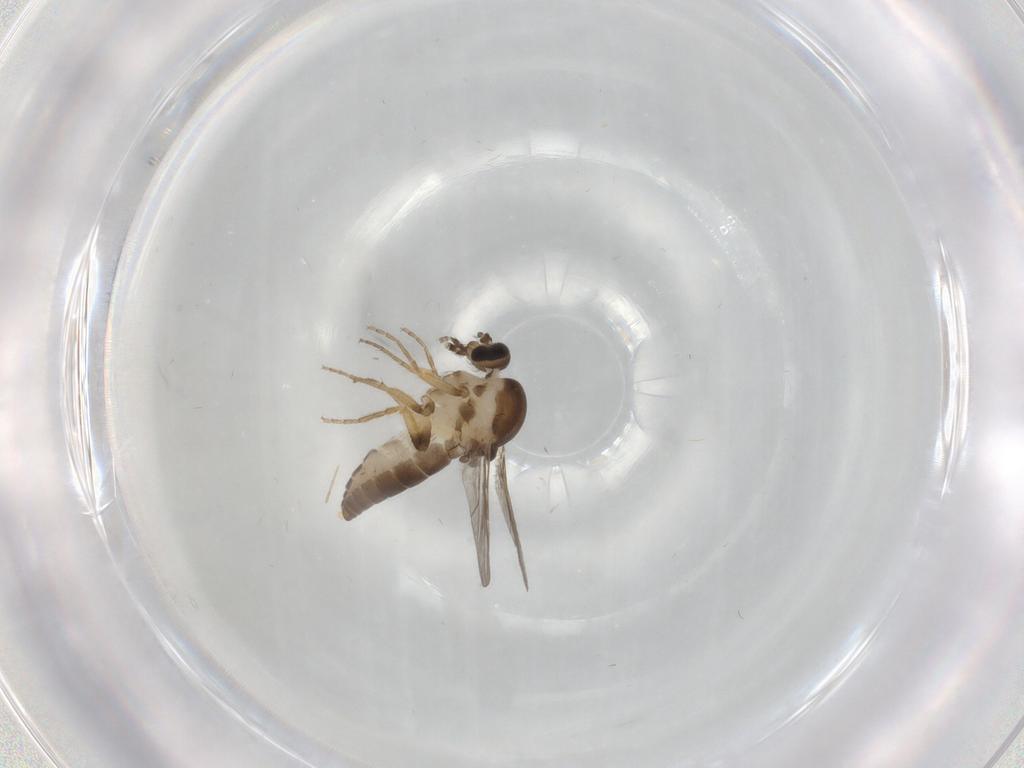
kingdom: Animalia
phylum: Arthropoda
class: Insecta
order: Diptera
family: Ceratopogonidae
